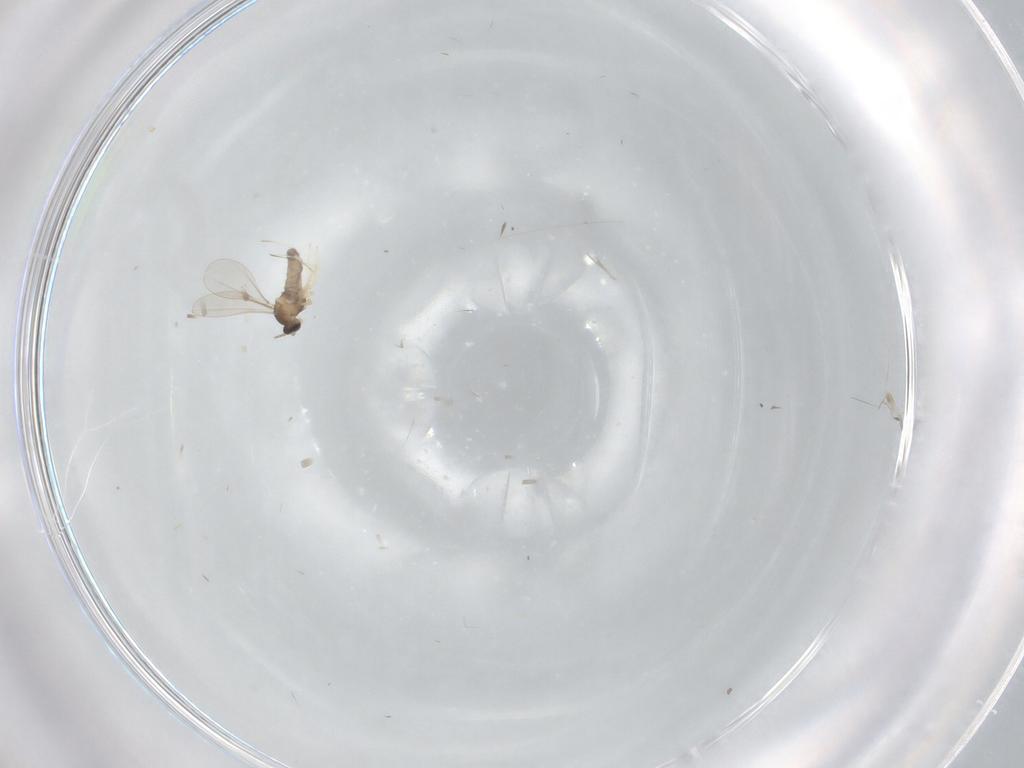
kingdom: Animalia
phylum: Arthropoda
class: Insecta
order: Diptera
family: Cecidomyiidae
